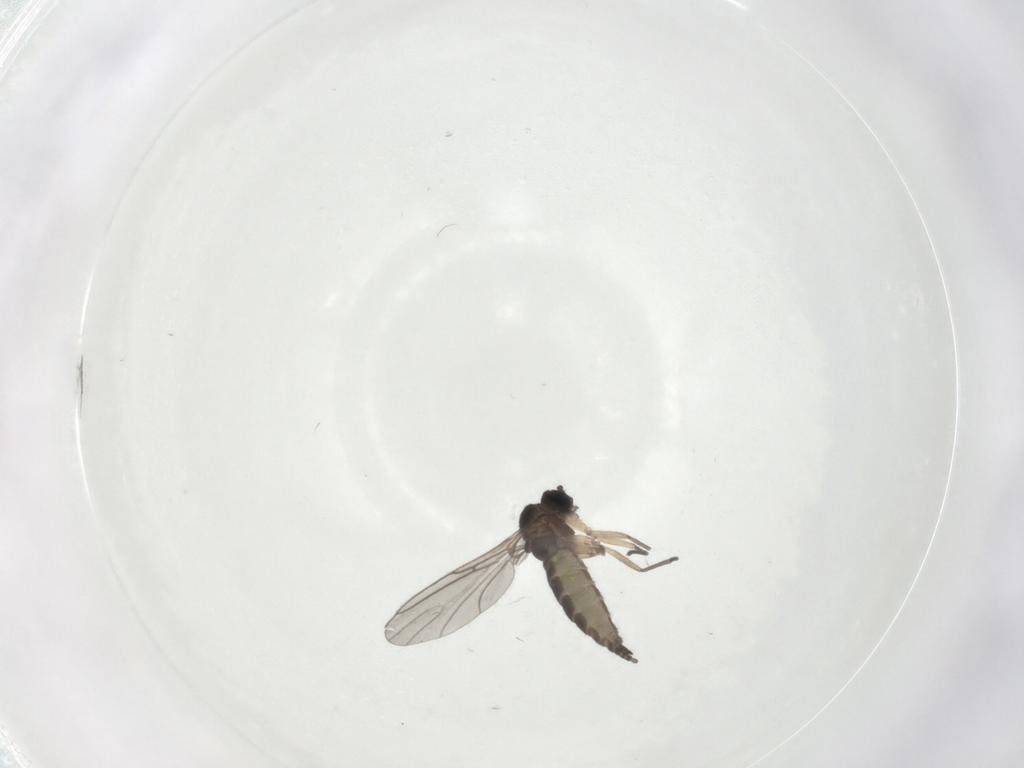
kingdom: Animalia
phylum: Arthropoda
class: Insecta
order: Diptera
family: Sciaridae
